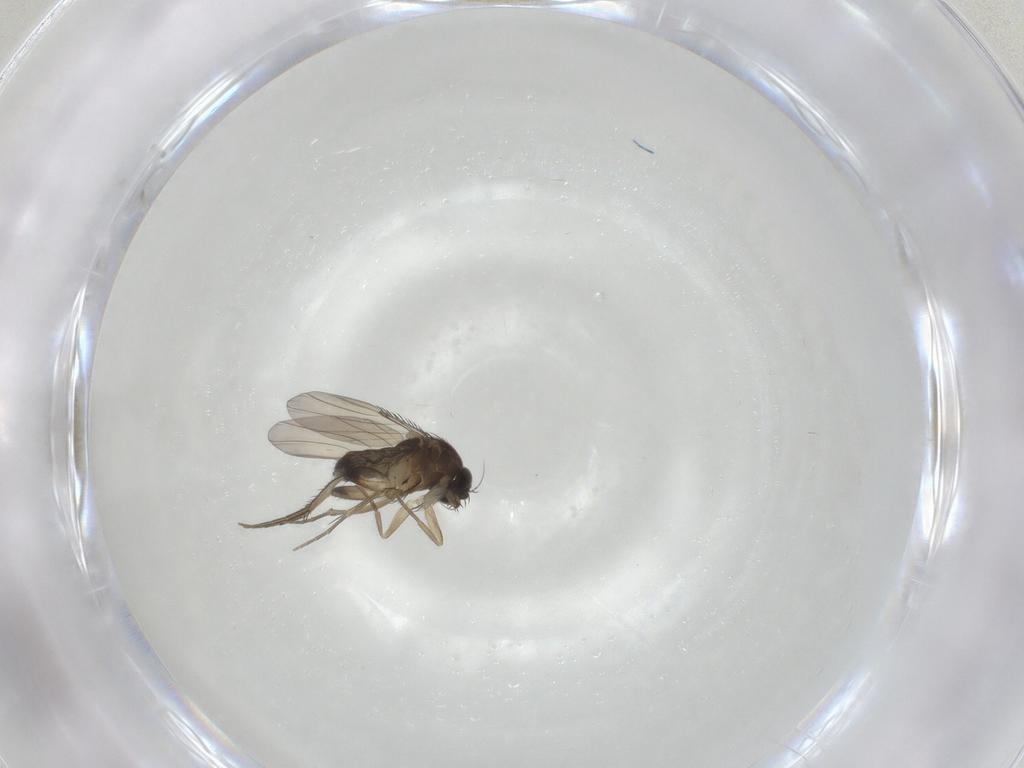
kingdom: Animalia
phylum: Arthropoda
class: Insecta
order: Diptera
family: Phoridae
